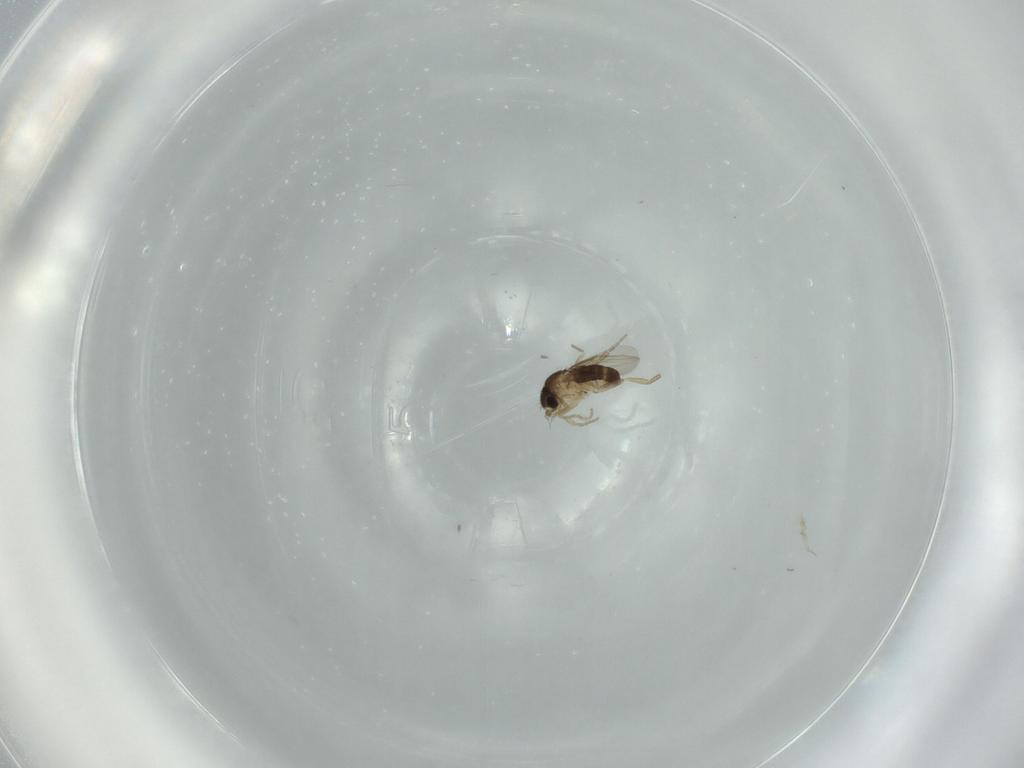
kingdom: Animalia
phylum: Arthropoda
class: Insecta
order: Diptera
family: Phoridae
